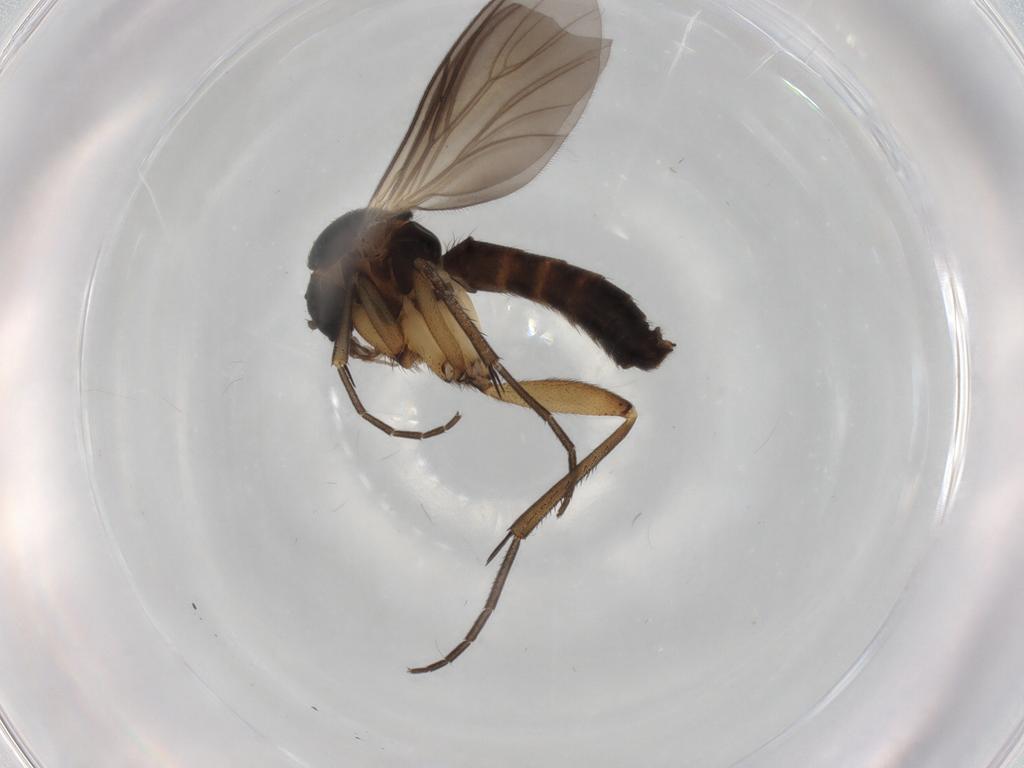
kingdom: Animalia
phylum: Arthropoda
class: Insecta
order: Diptera
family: Mycetophilidae
